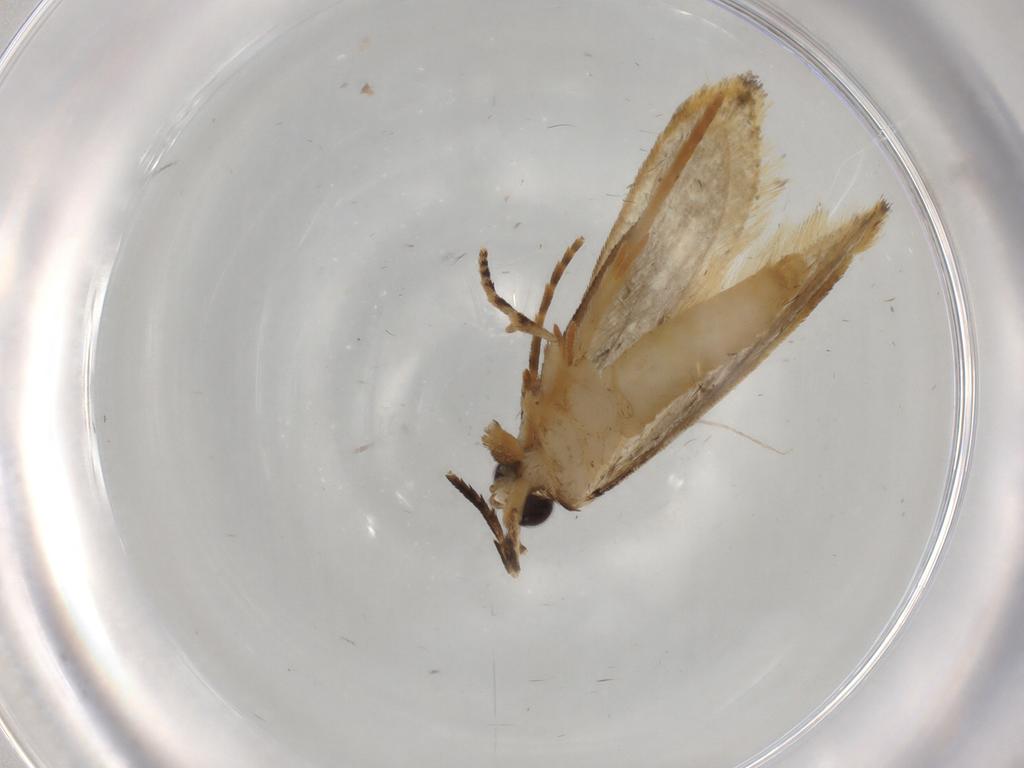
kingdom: Animalia
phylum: Arthropoda
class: Insecta
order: Lepidoptera
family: Tineidae
